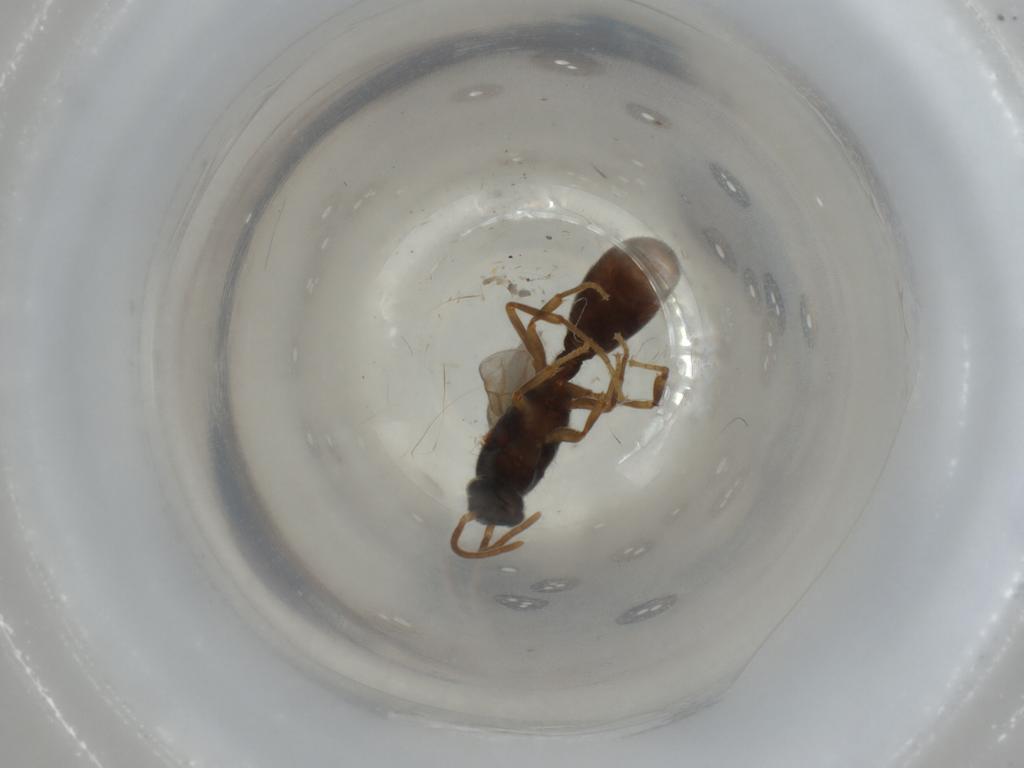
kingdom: Animalia
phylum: Arthropoda
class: Insecta
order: Hymenoptera
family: Formicidae
